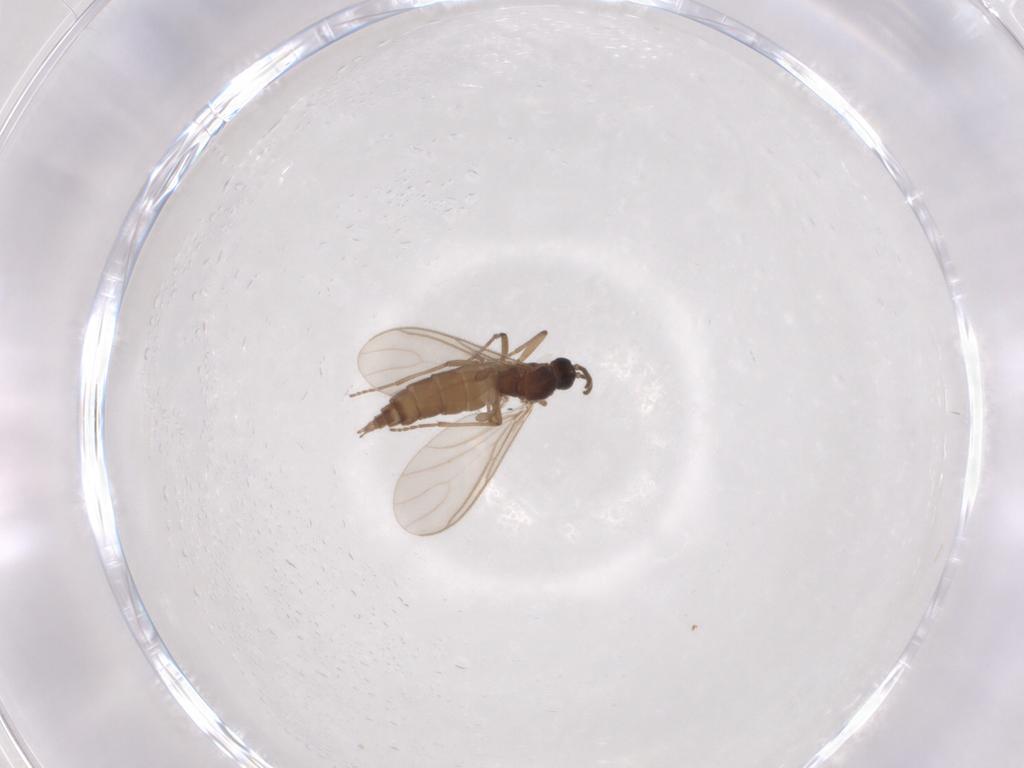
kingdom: Animalia
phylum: Arthropoda
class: Insecta
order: Diptera
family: Sciaridae
